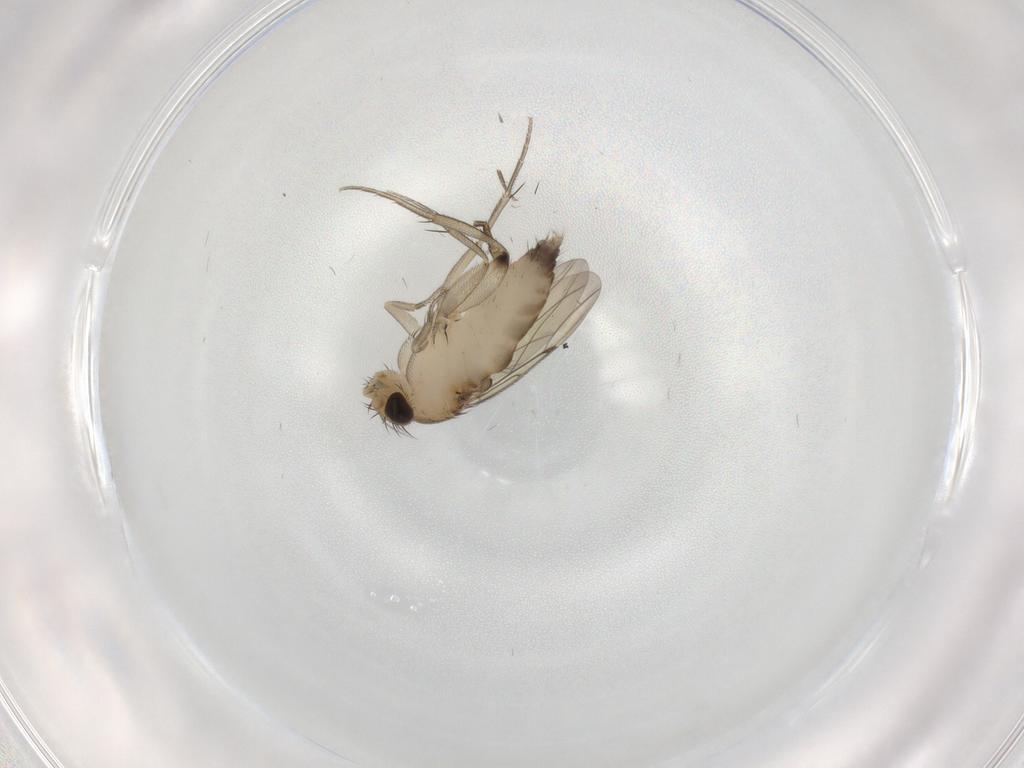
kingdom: Animalia
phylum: Arthropoda
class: Insecta
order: Diptera
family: Phoridae
